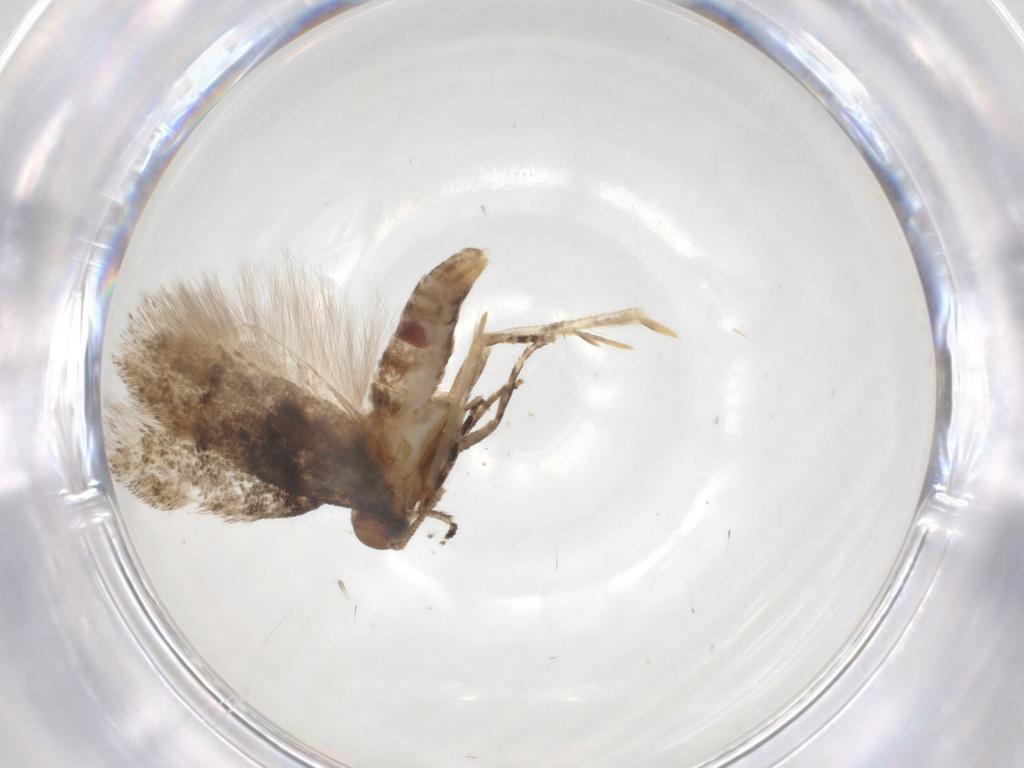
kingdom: Animalia
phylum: Arthropoda
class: Insecta
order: Lepidoptera
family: Gelechiidae
